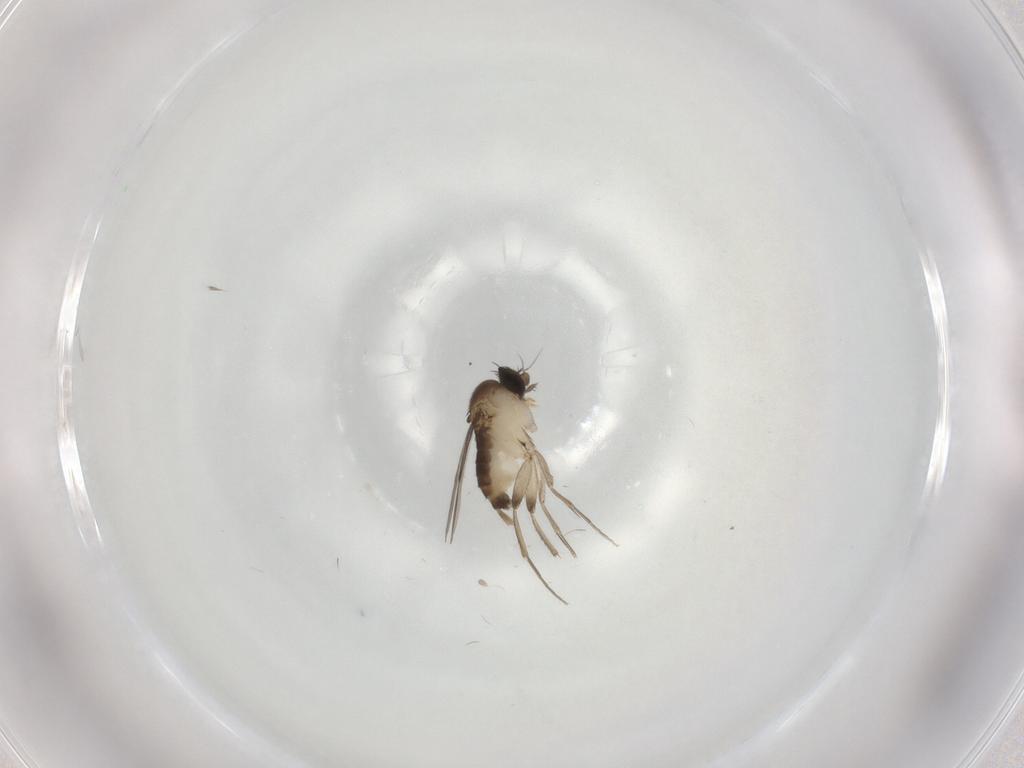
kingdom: Animalia
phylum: Arthropoda
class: Insecta
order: Diptera
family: Phoridae
